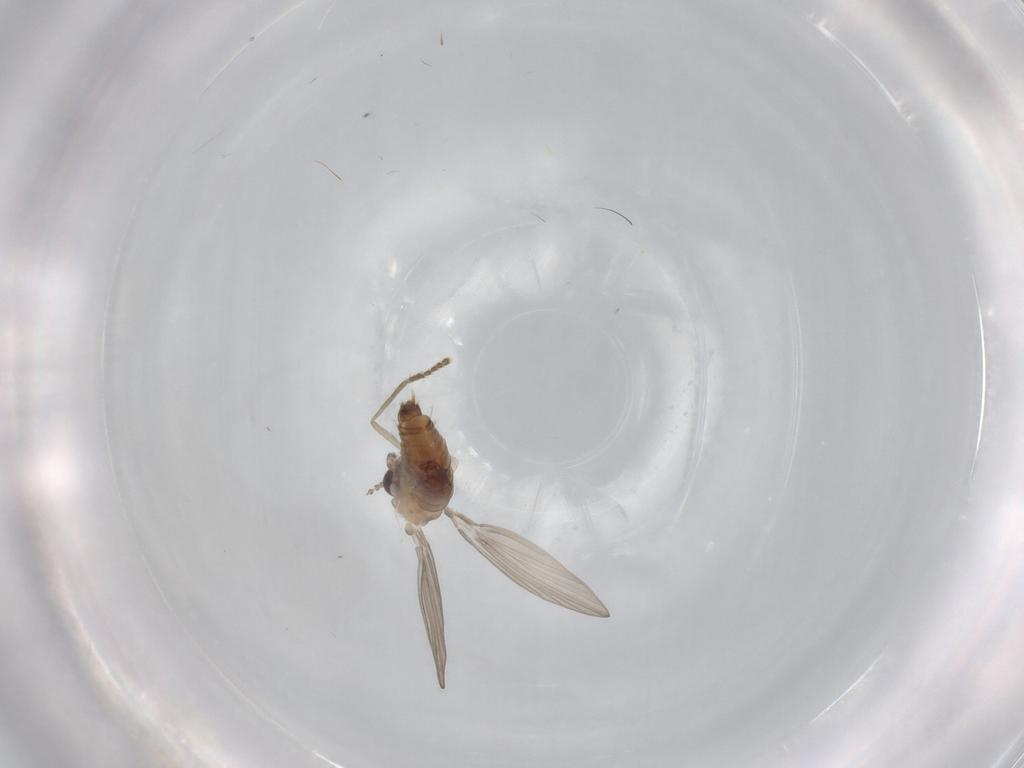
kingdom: Animalia
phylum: Arthropoda
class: Insecta
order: Diptera
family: Psychodidae
